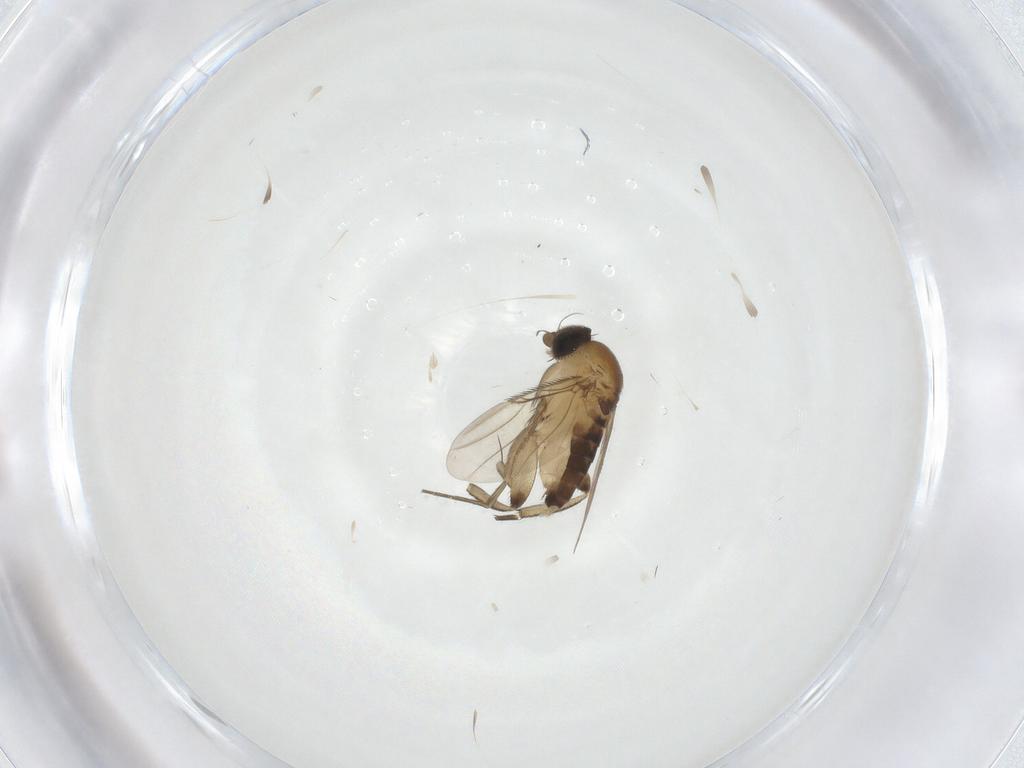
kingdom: Animalia
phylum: Arthropoda
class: Insecta
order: Diptera
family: Phoridae
